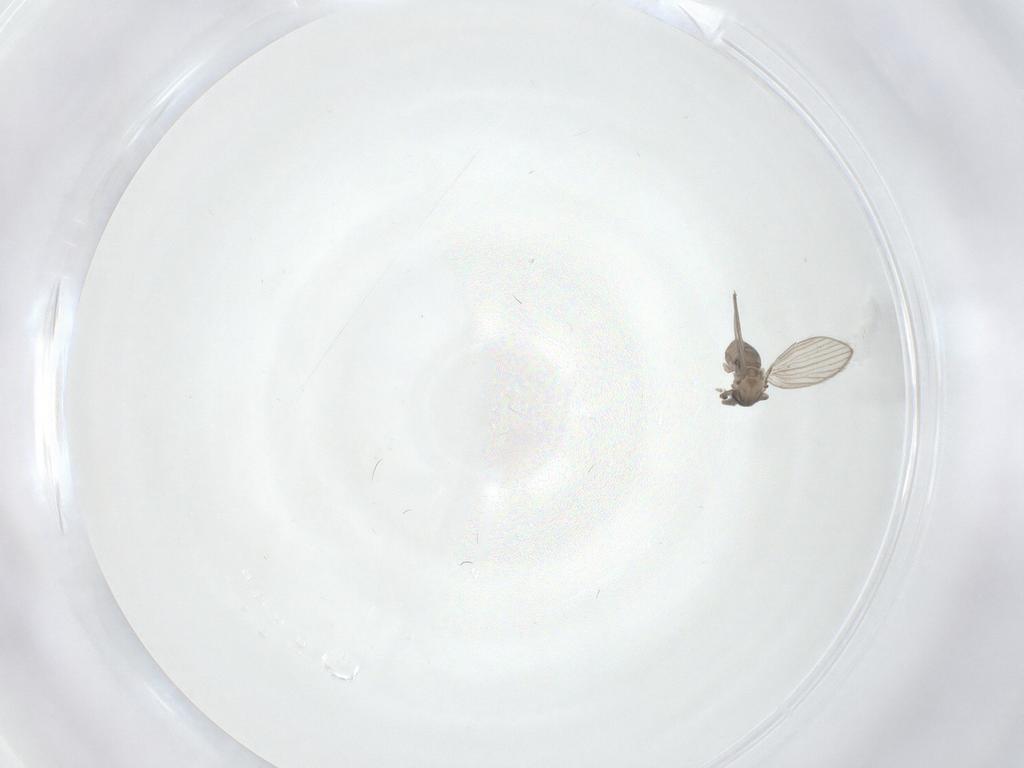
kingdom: Animalia
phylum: Arthropoda
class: Insecta
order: Diptera
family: Psychodidae
